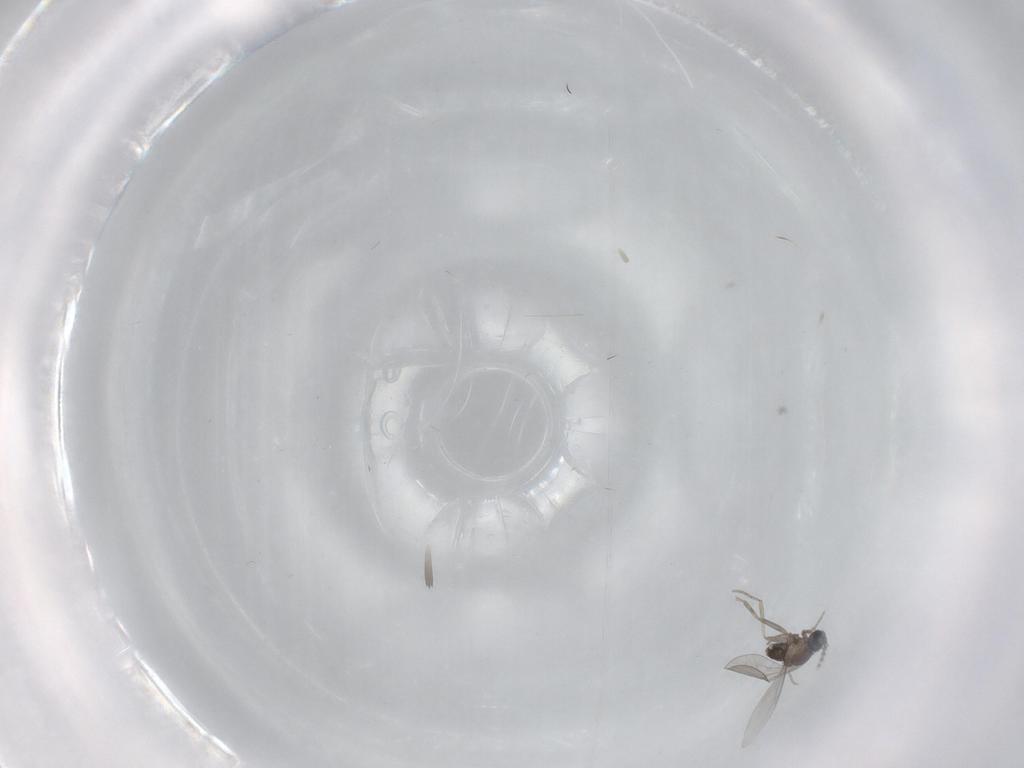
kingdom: Animalia
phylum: Arthropoda
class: Insecta
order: Diptera
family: Cecidomyiidae
